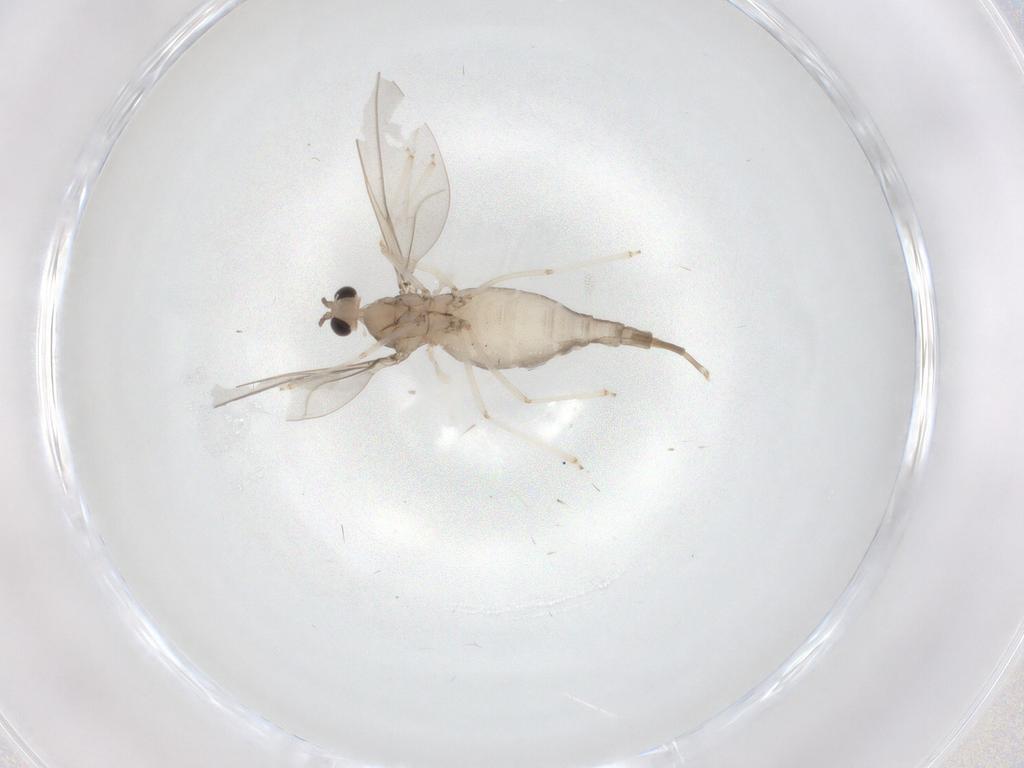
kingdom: Animalia
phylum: Arthropoda
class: Insecta
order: Diptera
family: Cecidomyiidae
